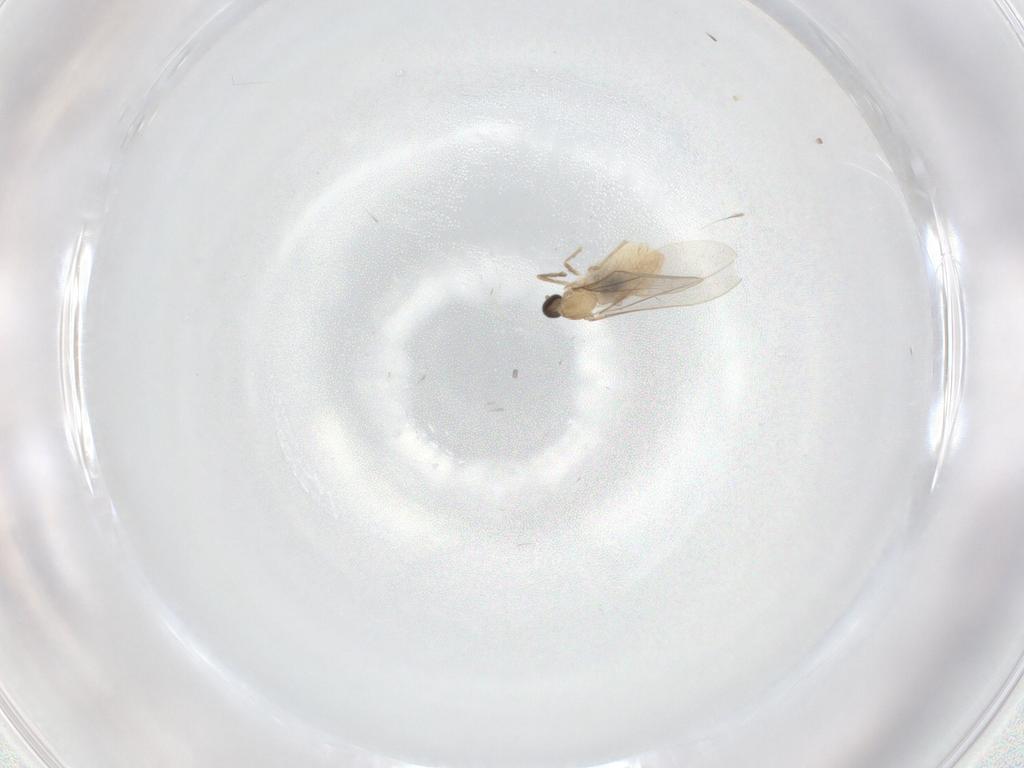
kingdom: Animalia
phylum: Arthropoda
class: Insecta
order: Diptera
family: Cecidomyiidae
